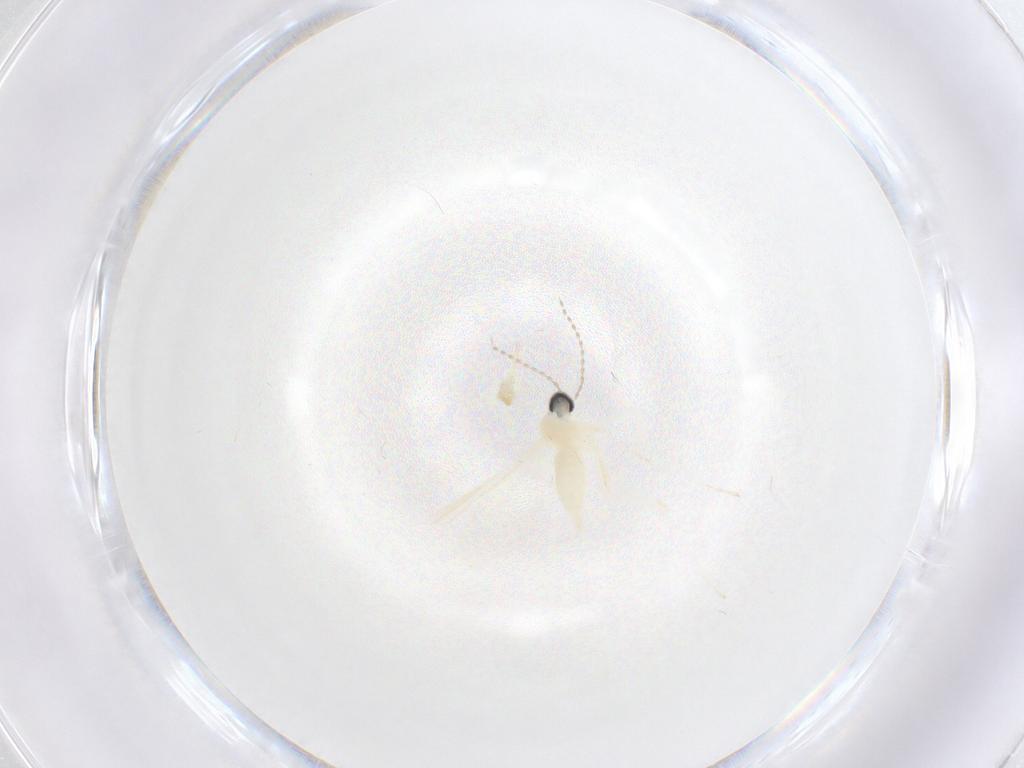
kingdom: Animalia
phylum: Arthropoda
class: Insecta
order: Diptera
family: Cecidomyiidae
